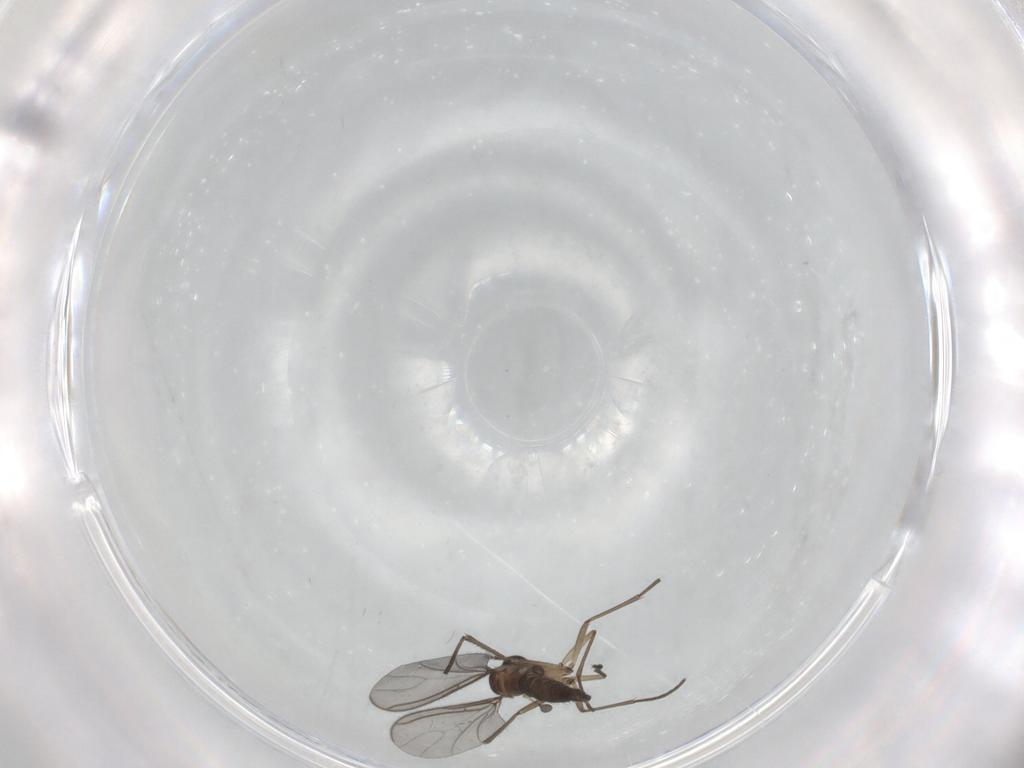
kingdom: Animalia
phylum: Arthropoda
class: Insecta
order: Diptera
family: Sciaridae
